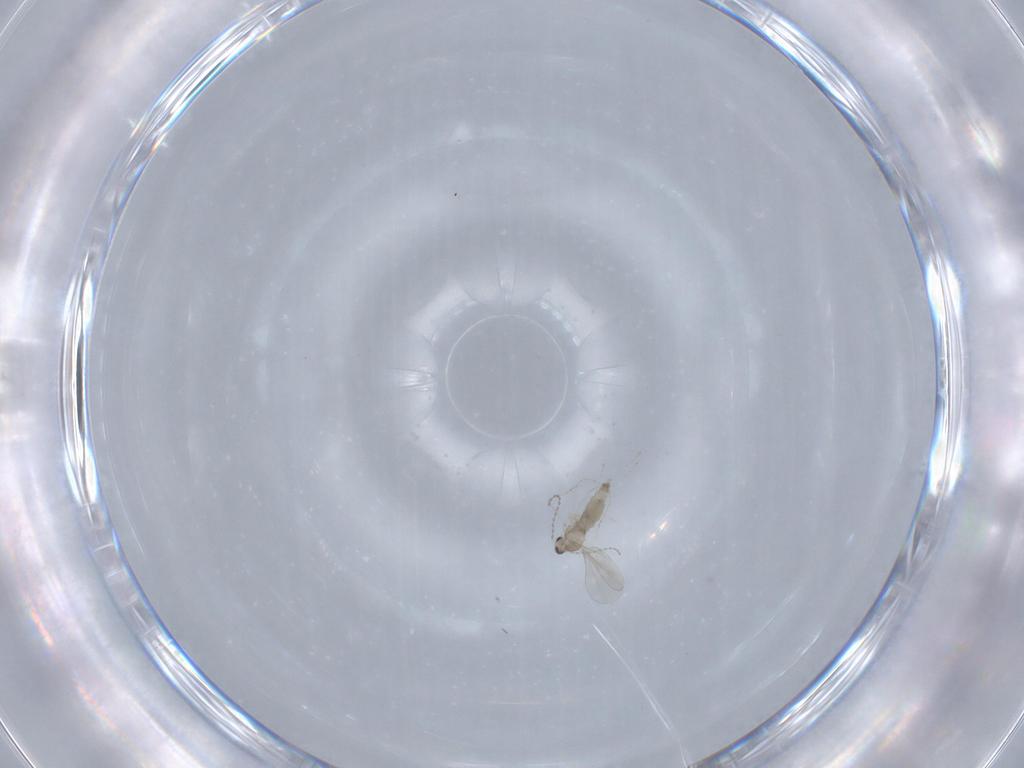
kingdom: Animalia
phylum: Arthropoda
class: Insecta
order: Diptera
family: Cecidomyiidae
